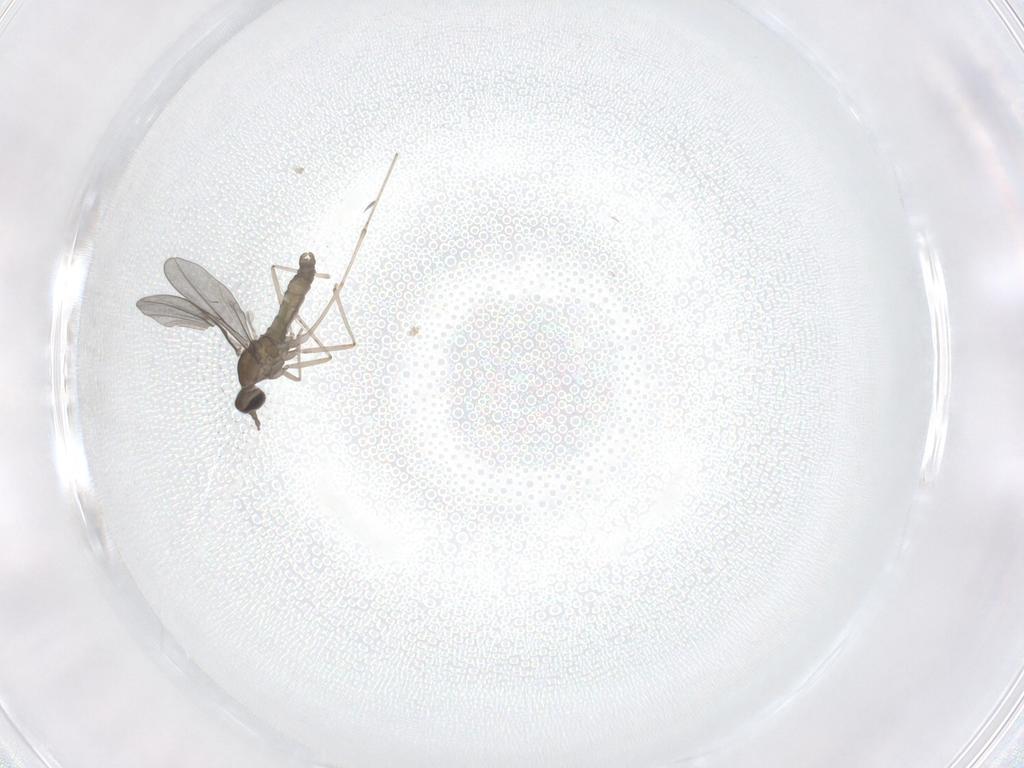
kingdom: Animalia
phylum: Arthropoda
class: Insecta
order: Diptera
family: Cecidomyiidae
